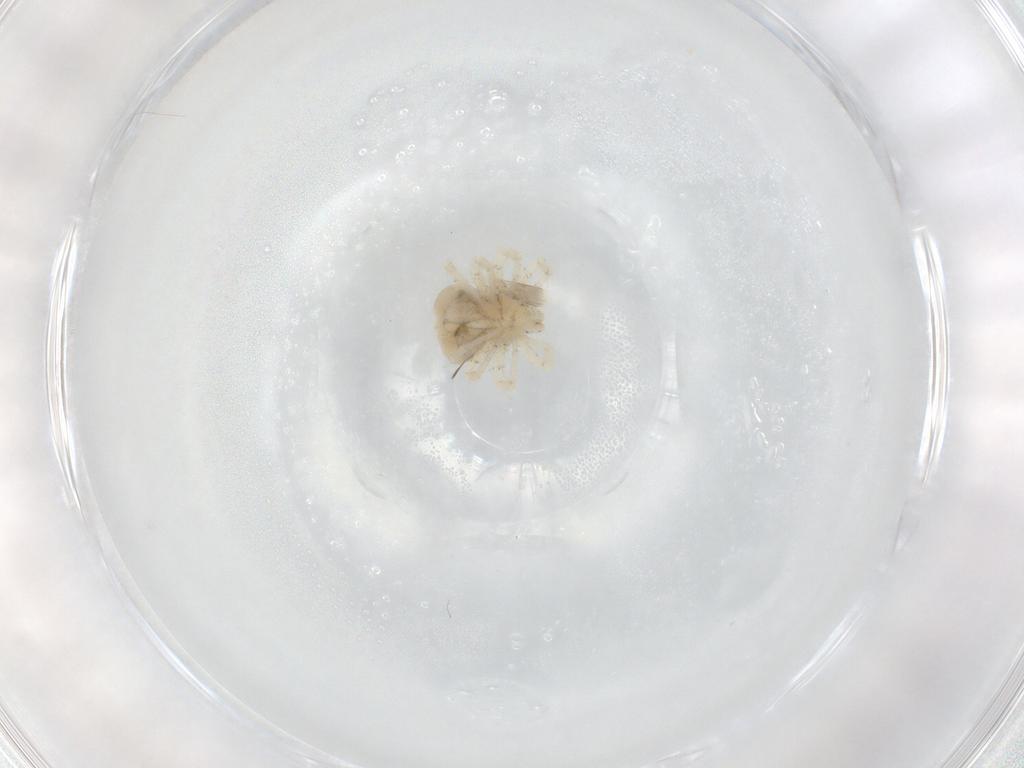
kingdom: Animalia
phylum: Arthropoda
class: Arachnida
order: Trombidiformes
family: Anystidae
